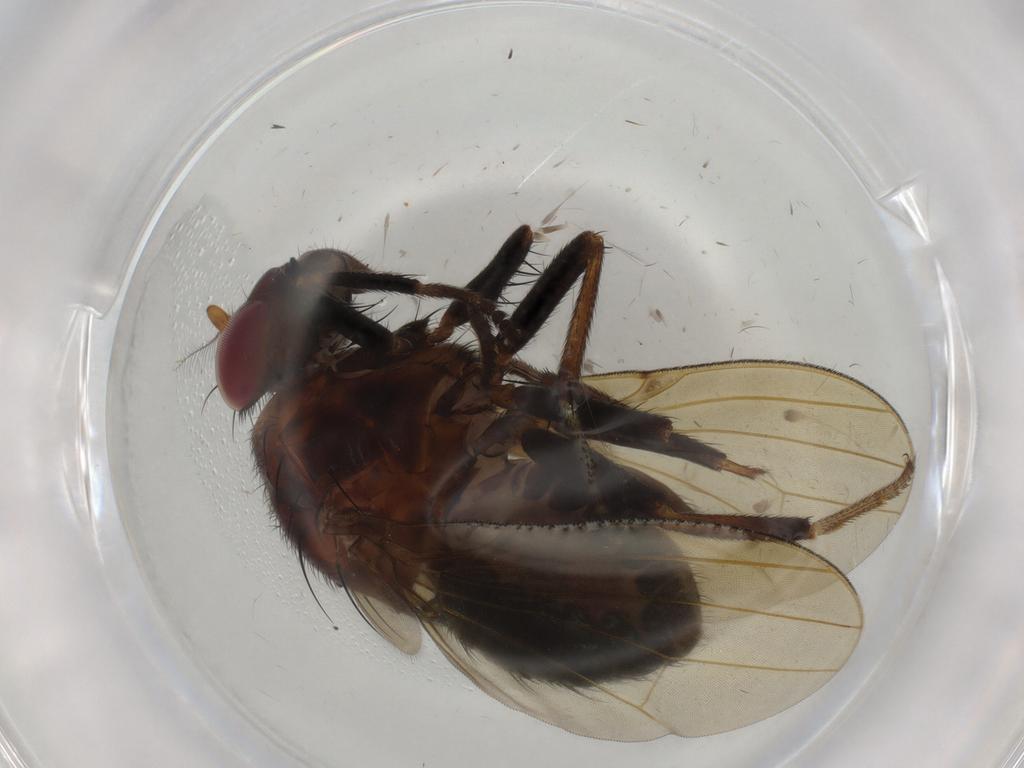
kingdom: Animalia
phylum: Arthropoda
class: Insecta
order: Diptera
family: Lauxaniidae
